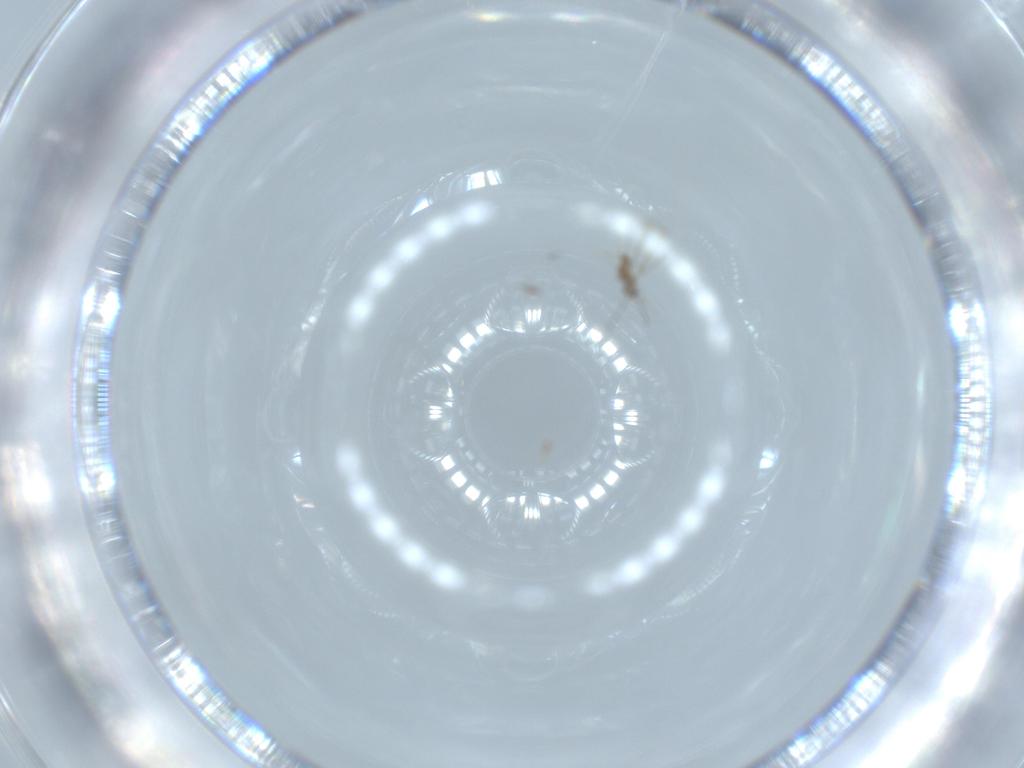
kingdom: Animalia
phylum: Arthropoda
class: Insecta
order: Hymenoptera
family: Mymaridae
